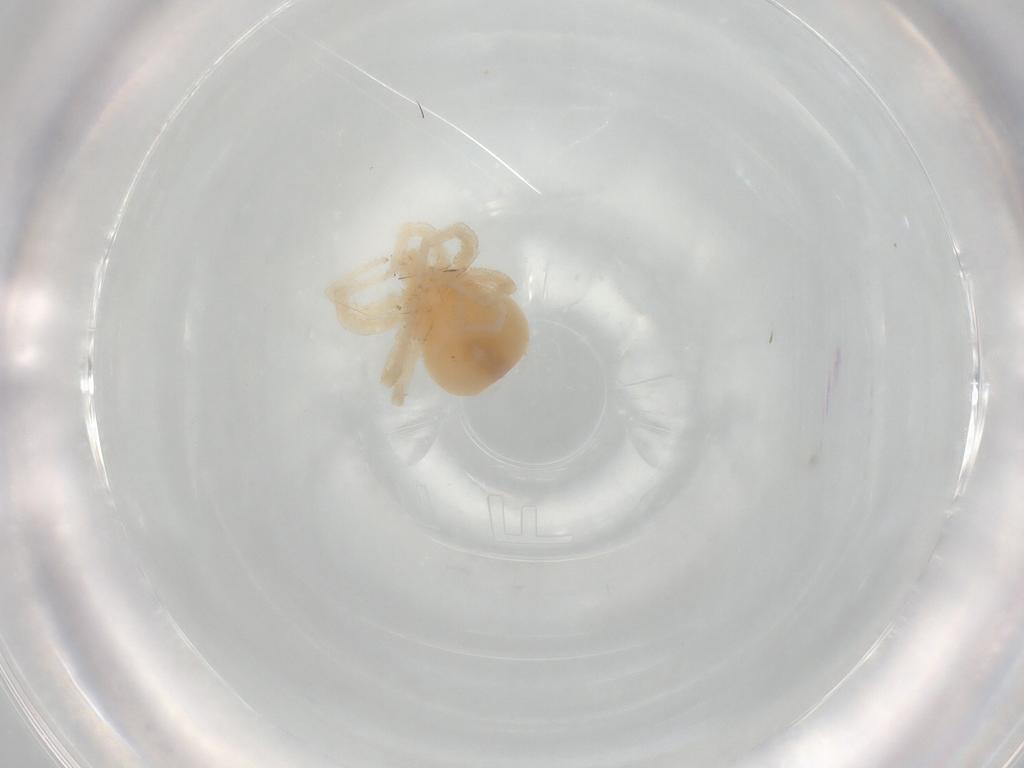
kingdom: Animalia
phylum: Arthropoda
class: Arachnida
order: Trombidiformes
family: Anystidae
